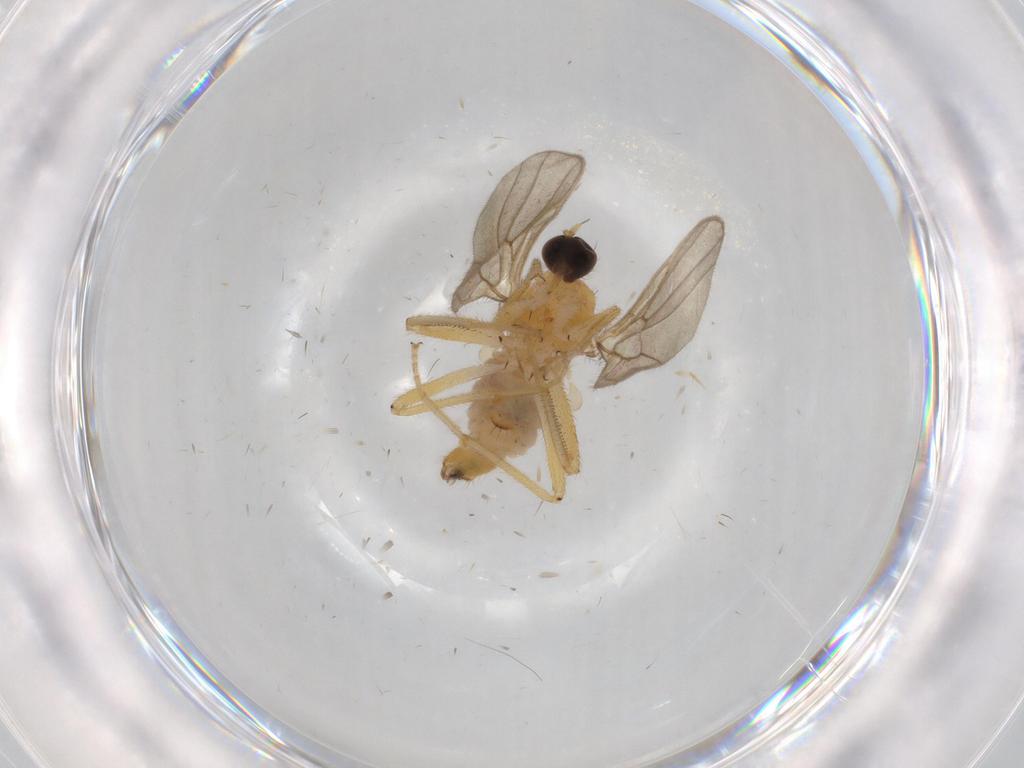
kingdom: Animalia
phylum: Arthropoda
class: Insecta
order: Diptera
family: Hybotidae
